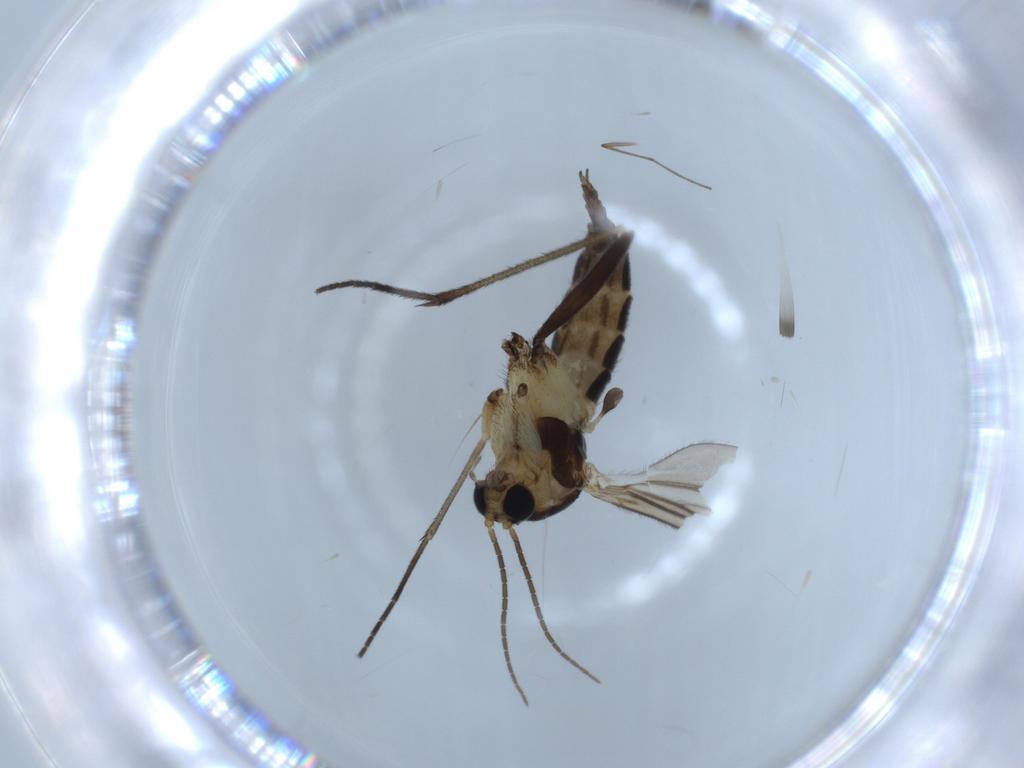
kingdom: Animalia
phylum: Arthropoda
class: Insecta
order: Diptera
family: Sciaridae
